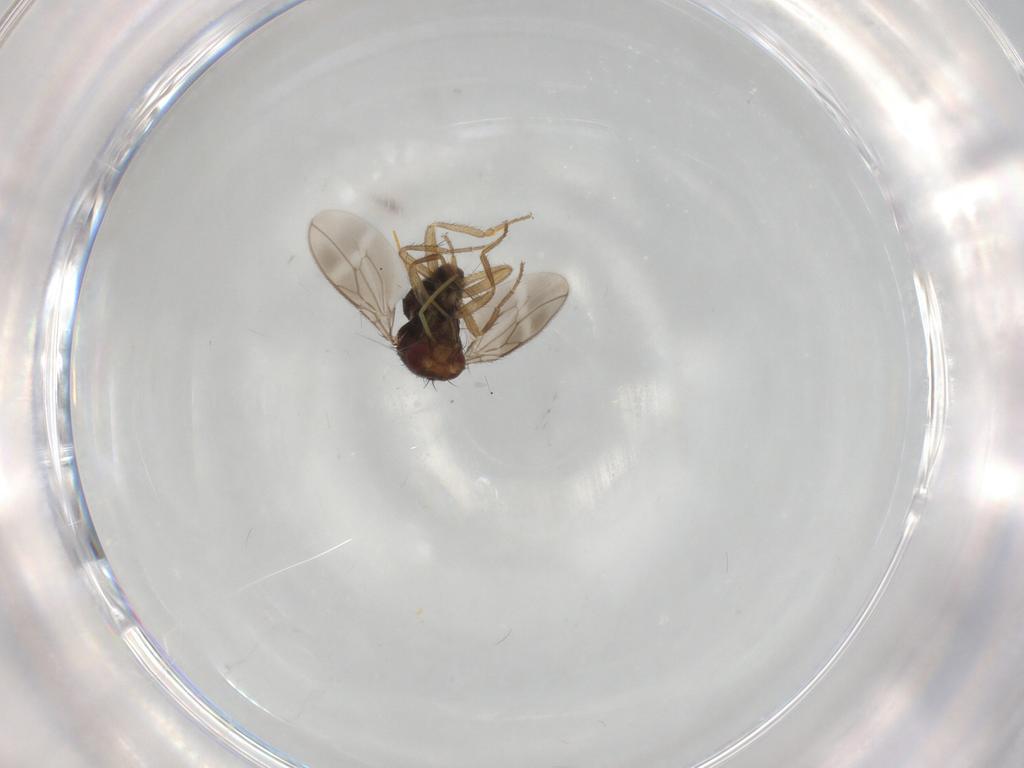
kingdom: Animalia
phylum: Arthropoda
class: Insecta
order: Diptera
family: Sphaeroceridae
